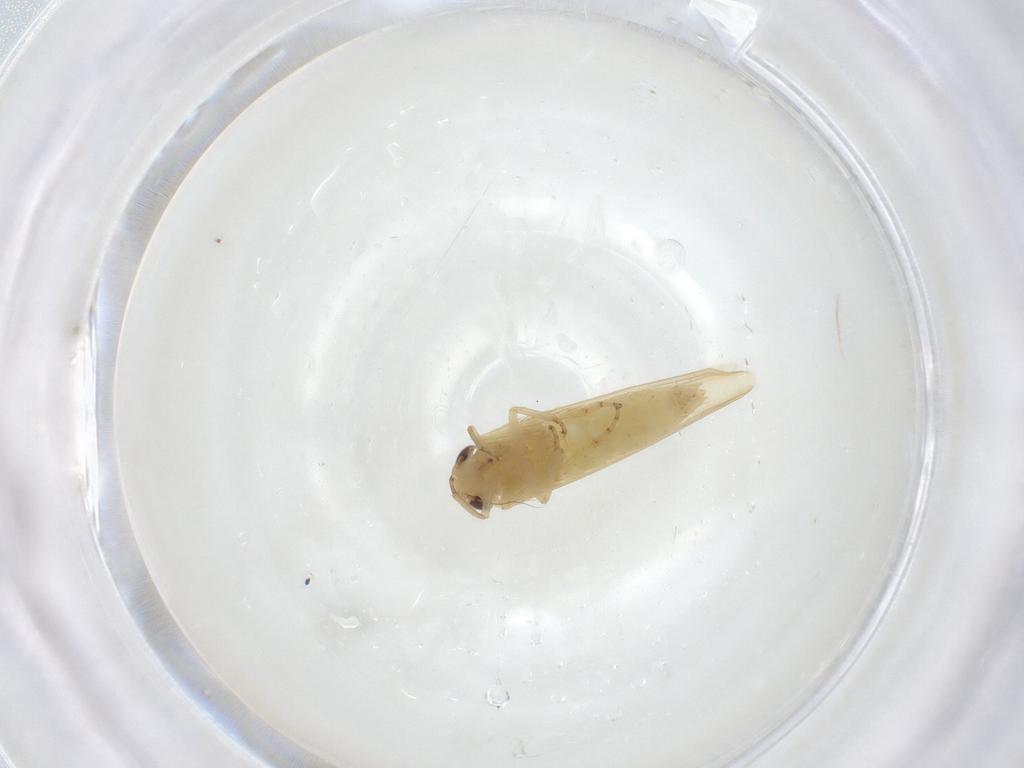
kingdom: Animalia
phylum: Arthropoda
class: Insecta
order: Hemiptera
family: Cicadellidae
